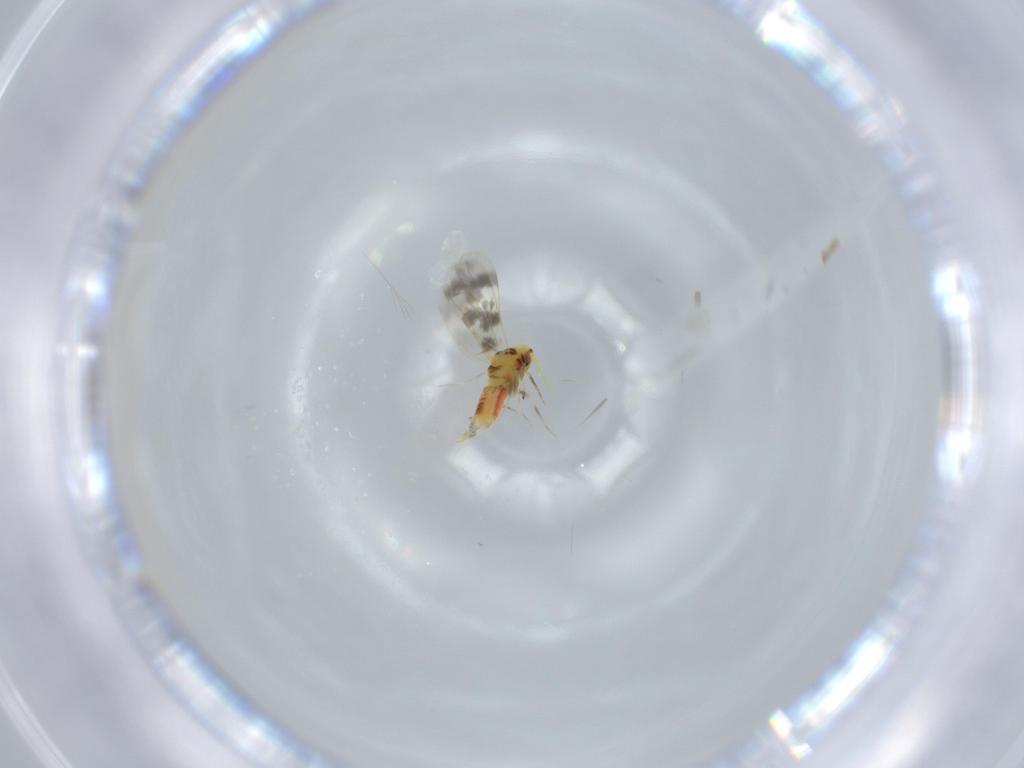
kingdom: Animalia
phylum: Arthropoda
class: Insecta
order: Hemiptera
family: Aleyrodidae
